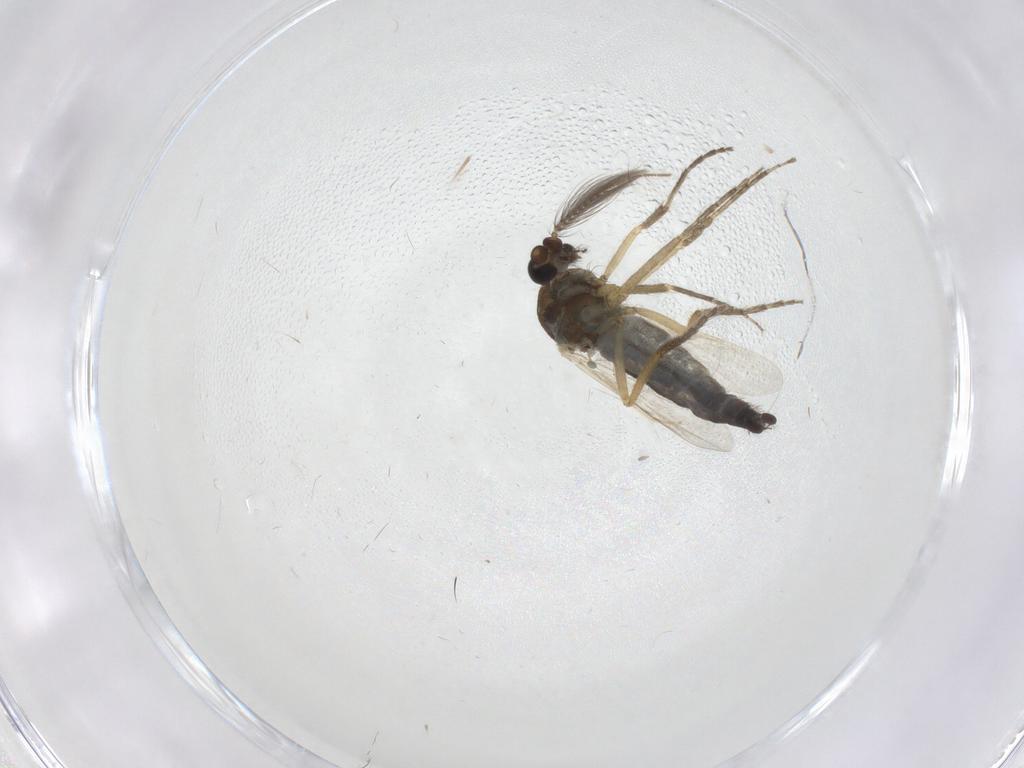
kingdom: Animalia
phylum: Arthropoda
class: Insecta
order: Diptera
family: Ceratopogonidae
